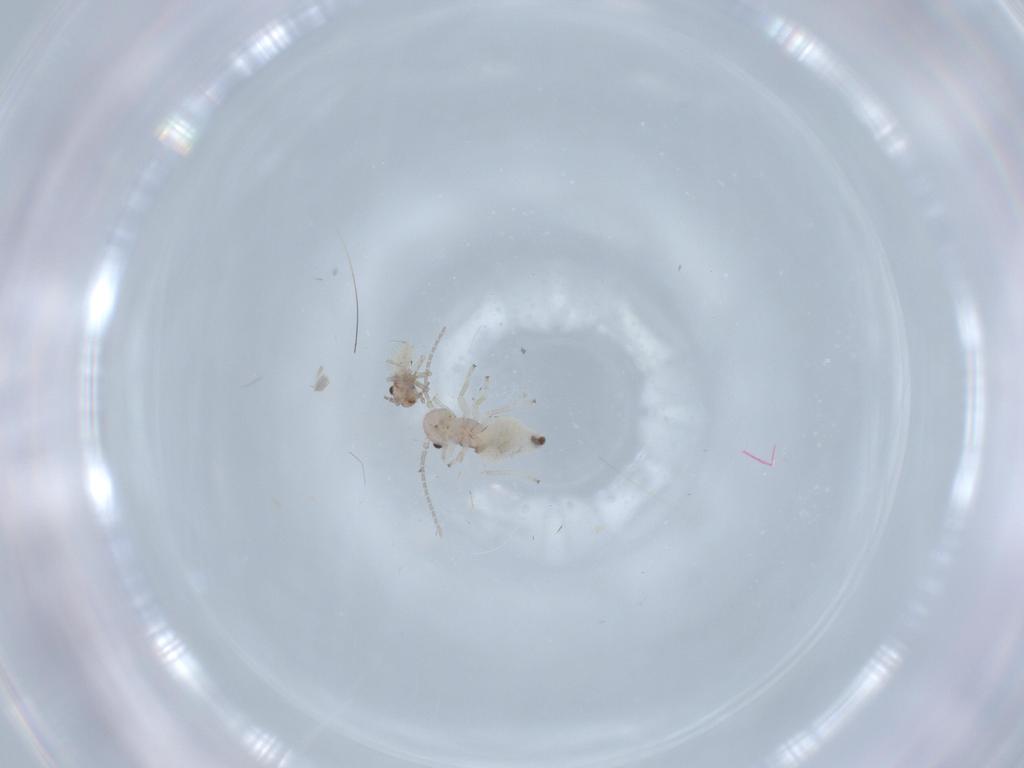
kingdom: Animalia
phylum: Arthropoda
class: Insecta
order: Psocodea
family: Lepidopsocidae
